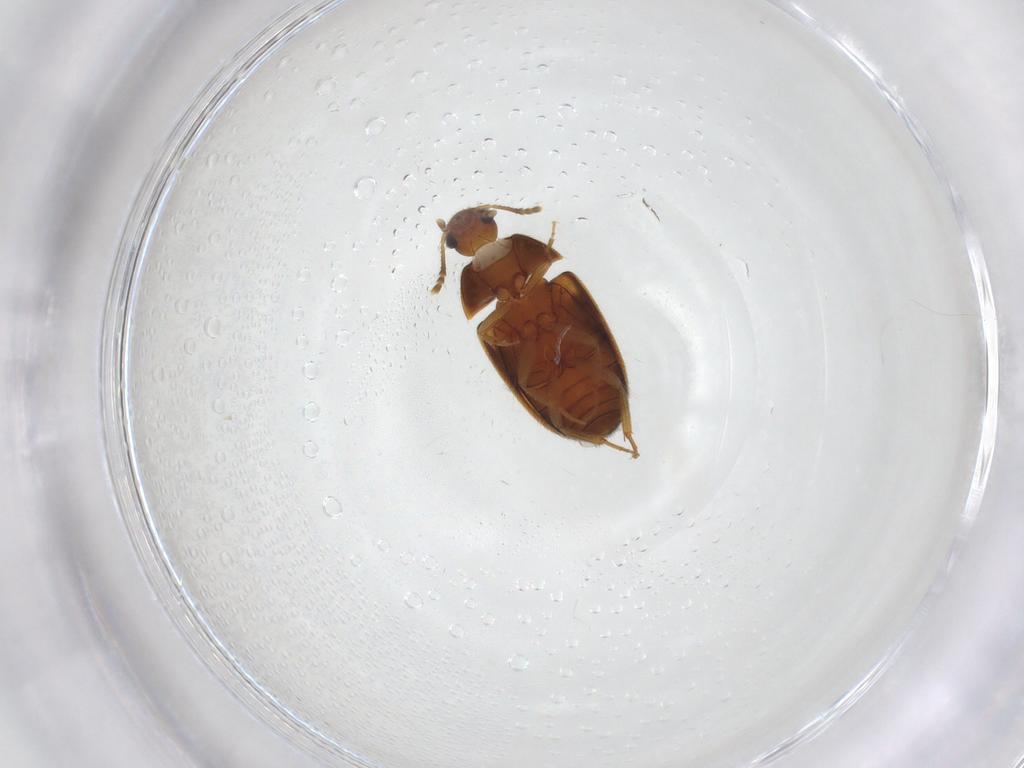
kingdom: Animalia
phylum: Arthropoda
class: Insecta
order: Coleoptera
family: Mycetophagidae
